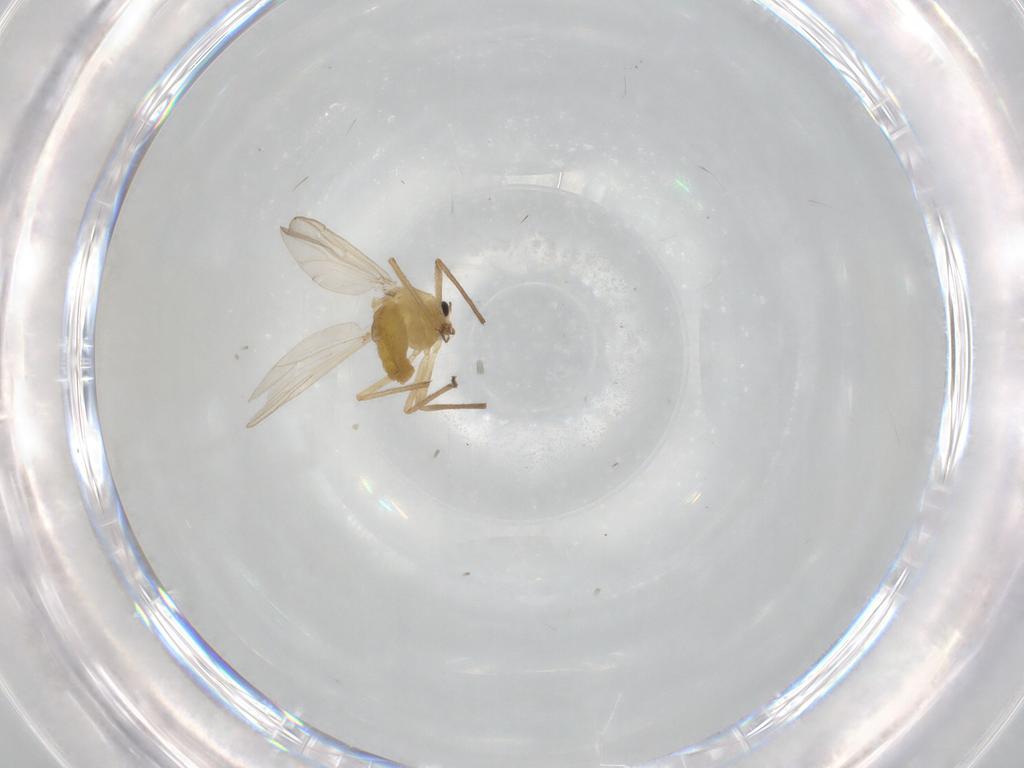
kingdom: Animalia
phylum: Arthropoda
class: Insecta
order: Diptera
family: Chironomidae
